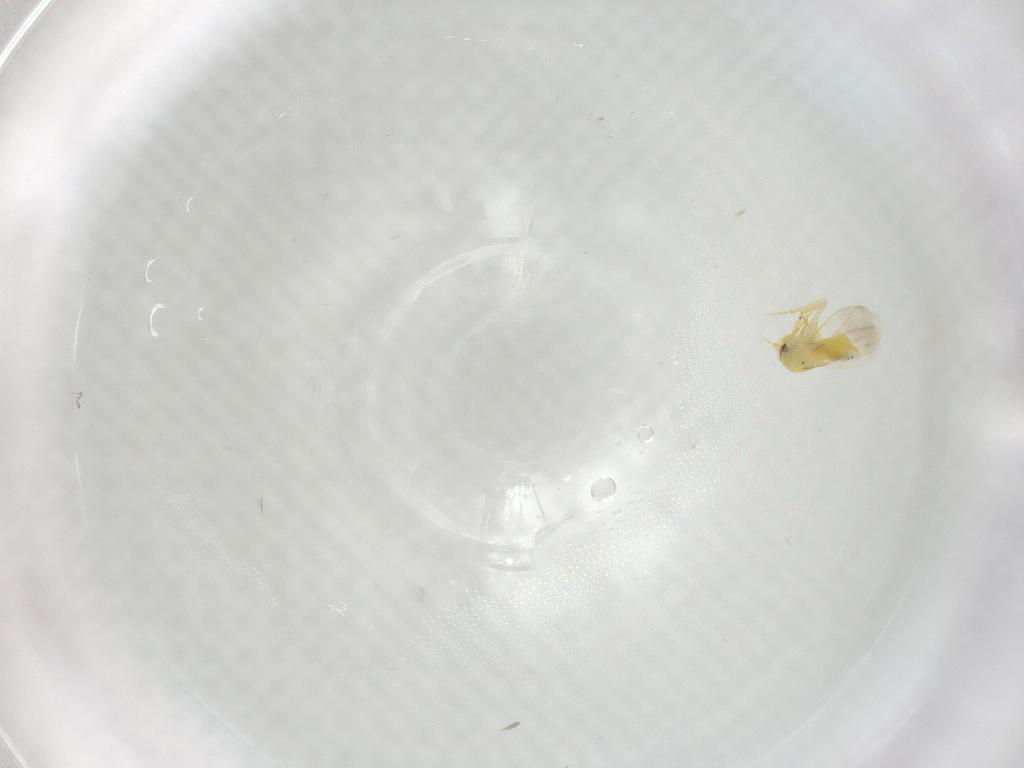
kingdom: Animalia
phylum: Arthropoda
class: Insecta
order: Hemiptera
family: Aleyrodidae
